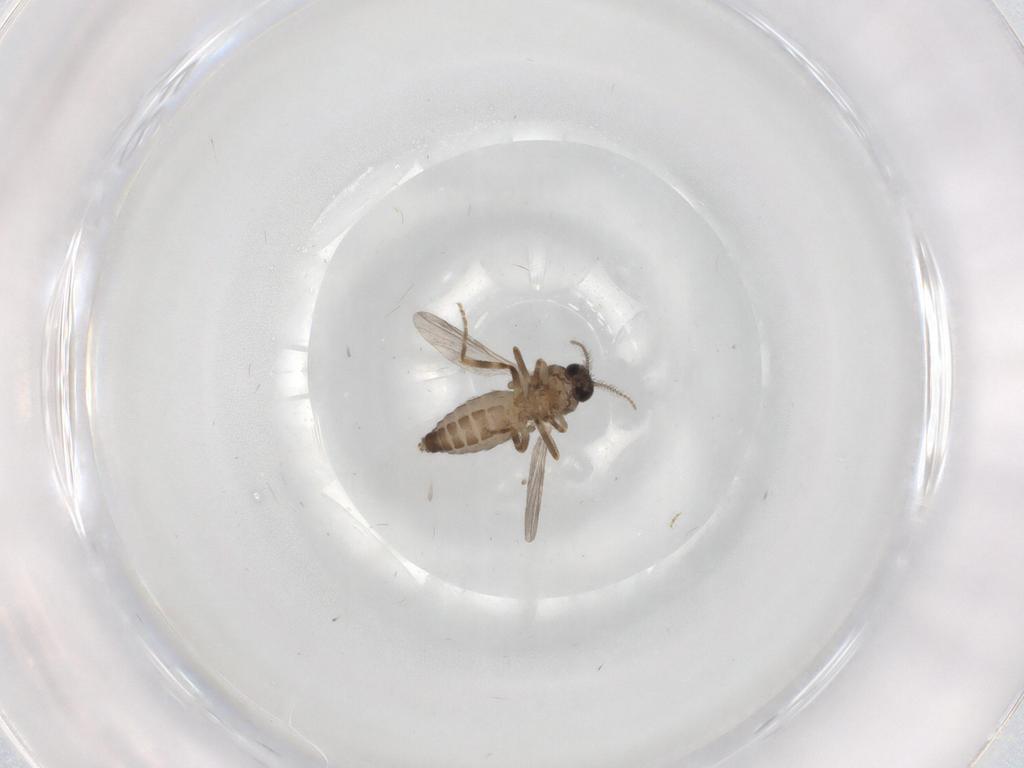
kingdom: Animalia
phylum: Arthropoda
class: Insecta
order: Diptera
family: Ceratopogonidae
